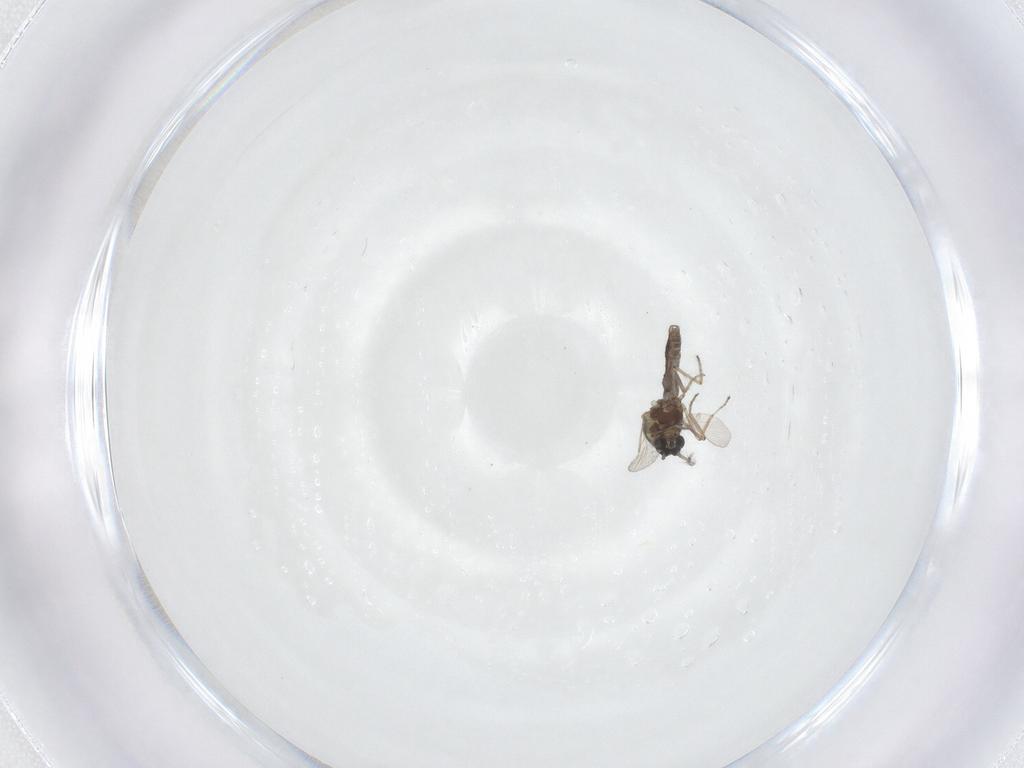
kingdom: Animalia
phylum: Arthropoda
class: Insecta
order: Diptera
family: Ceratopogonidae
